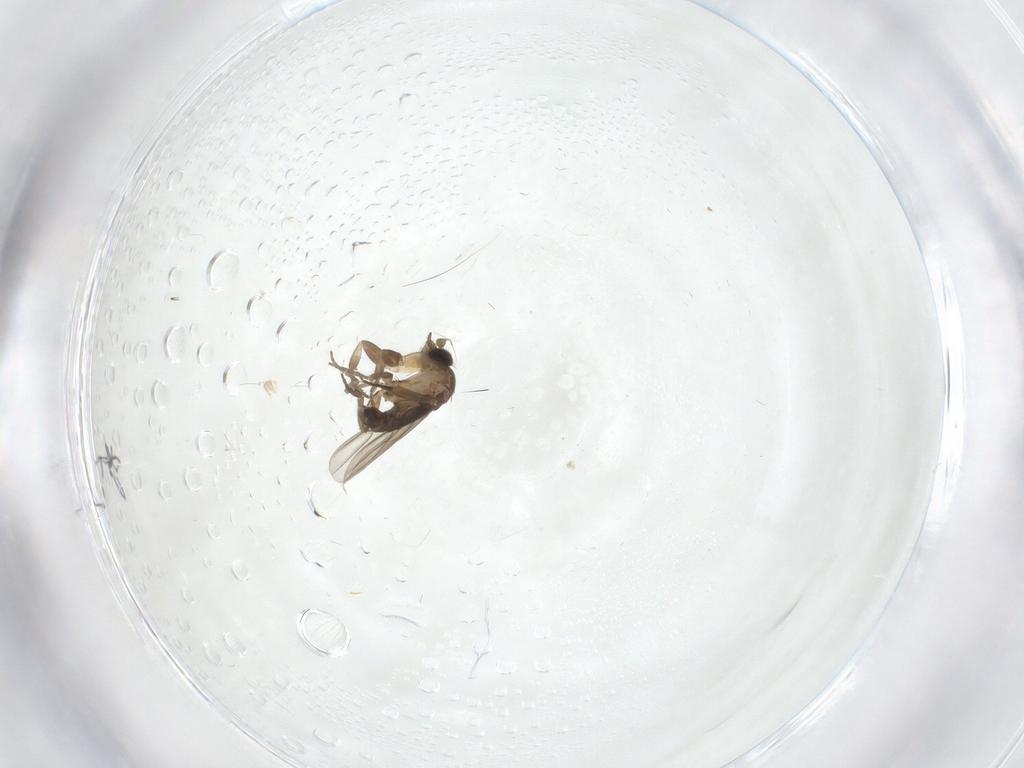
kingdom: Animalia
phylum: Arthropoda
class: Insecta
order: Diptera
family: Phoridae
